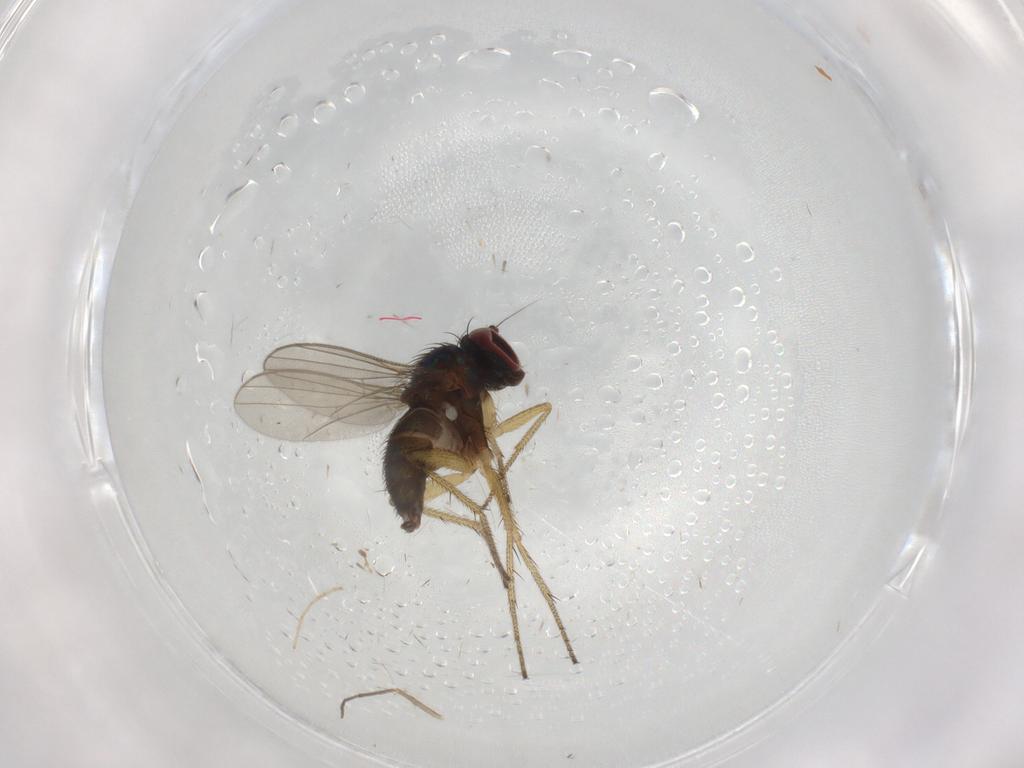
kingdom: Animalia
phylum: Arthropoda
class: Insecta
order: Diptera
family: Chironomidae
